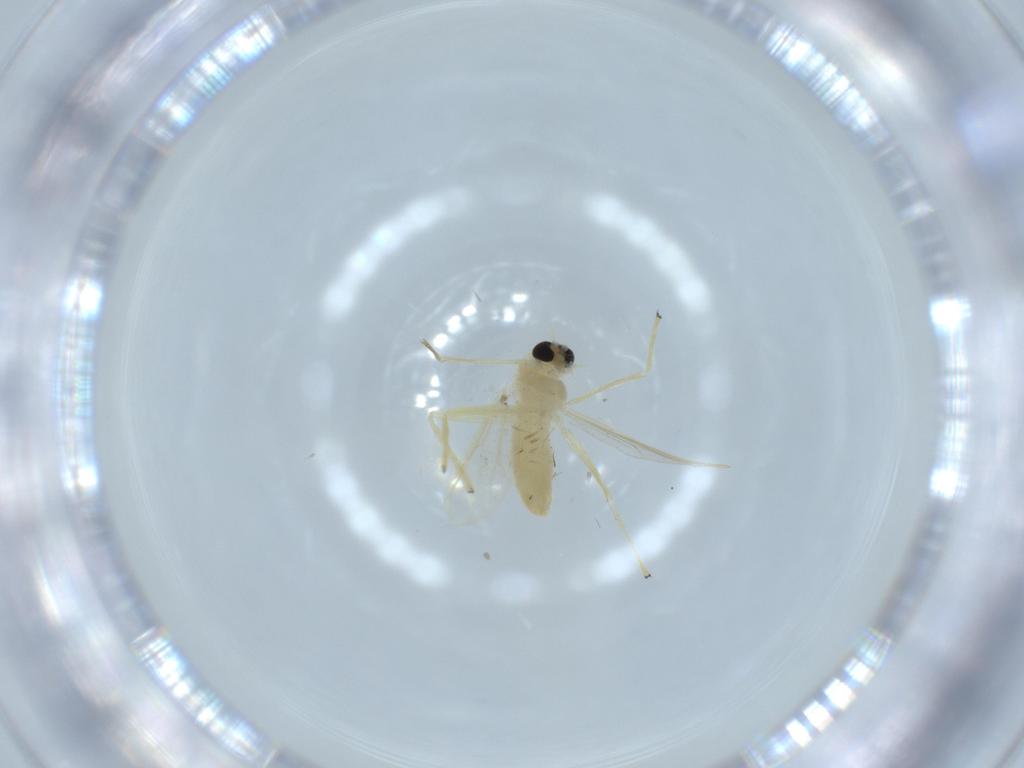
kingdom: Animalia
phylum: Arthropoda
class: Insecta
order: Diptera
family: Chironomidae
